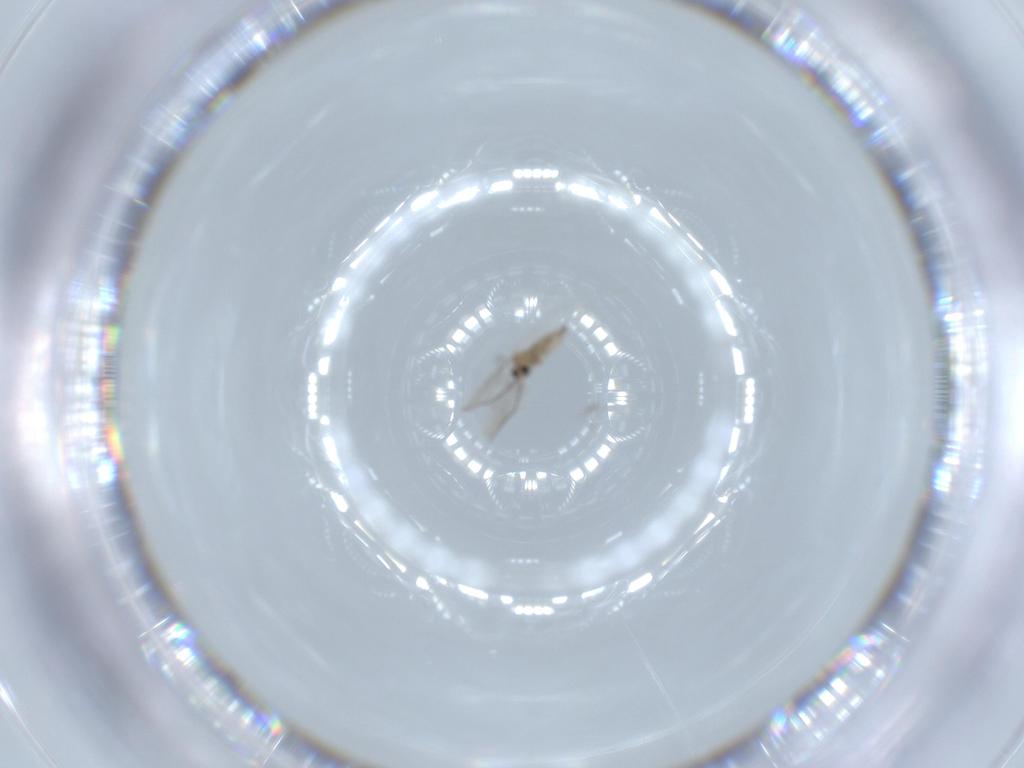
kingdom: Animalia
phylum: Arthropoda
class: Insecta
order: Diptera
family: Cecidomyiidae
